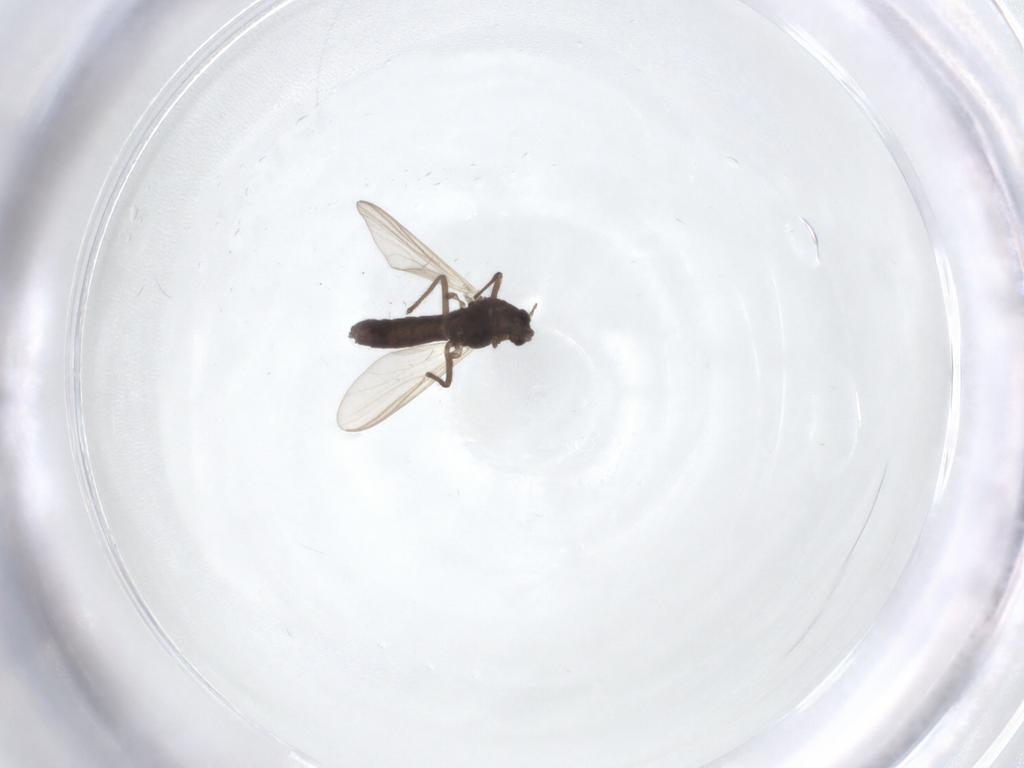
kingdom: Animalia
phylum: Arthropoda
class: Insecta
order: Diptera
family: Chironomidae
